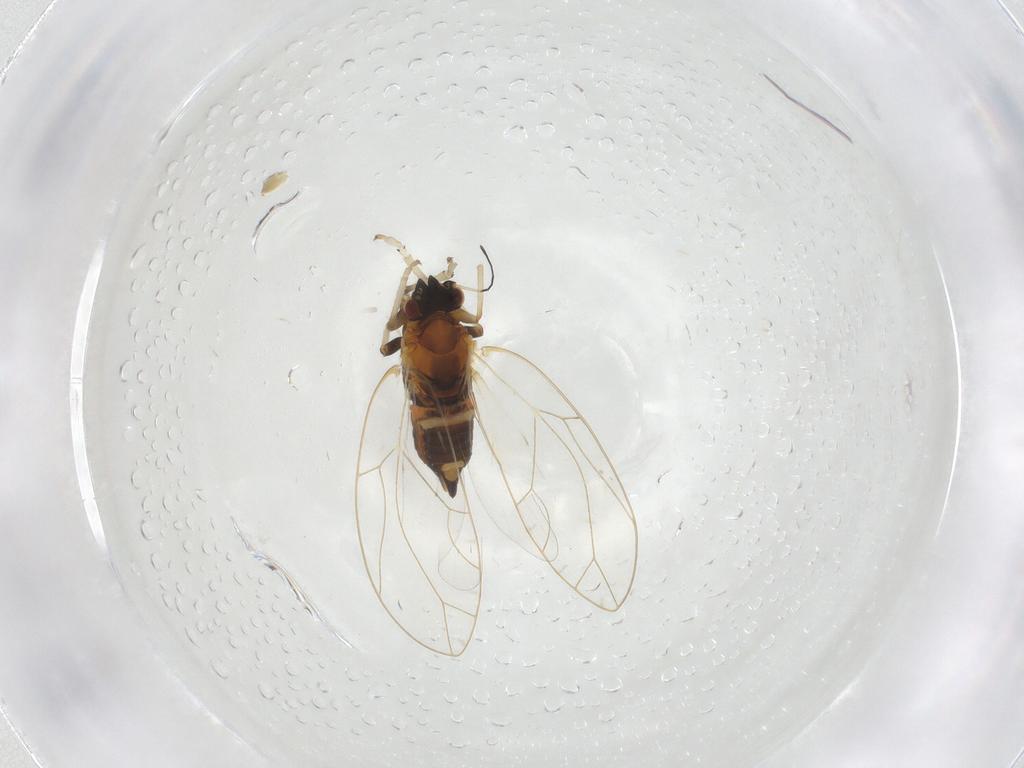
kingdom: Animalia
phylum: Arthropoda
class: Insecta
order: Hemiptera
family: Triozidae
